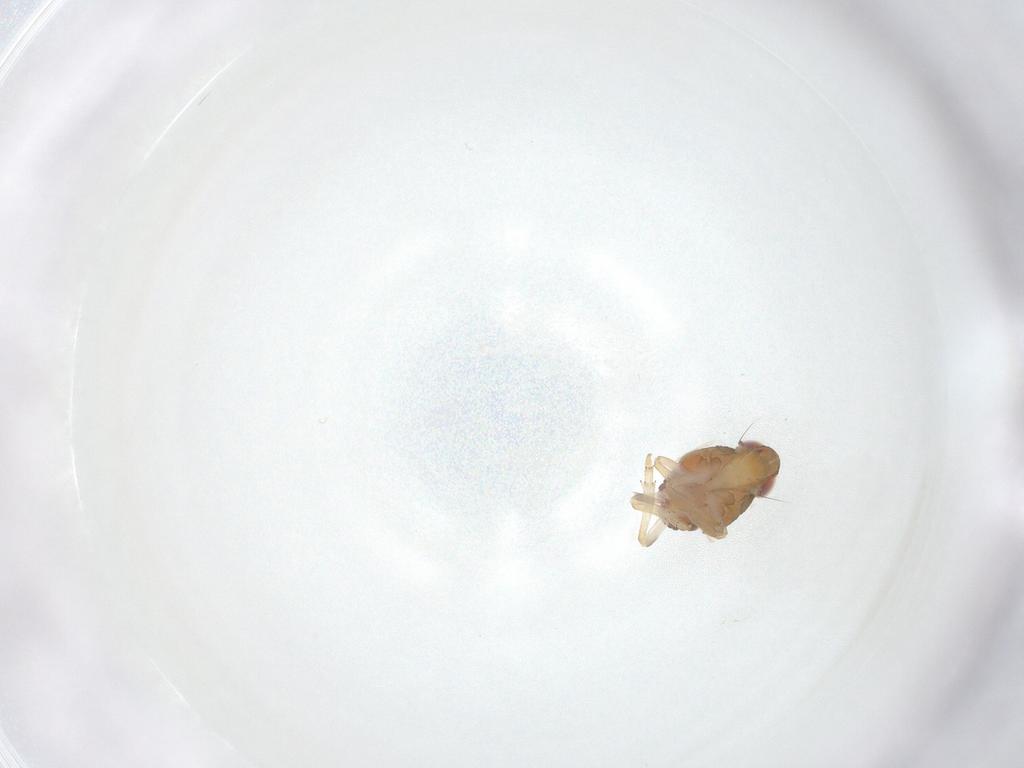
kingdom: Animalia
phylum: Arthropoda
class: Insecta
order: Hemiptera
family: Issidae
